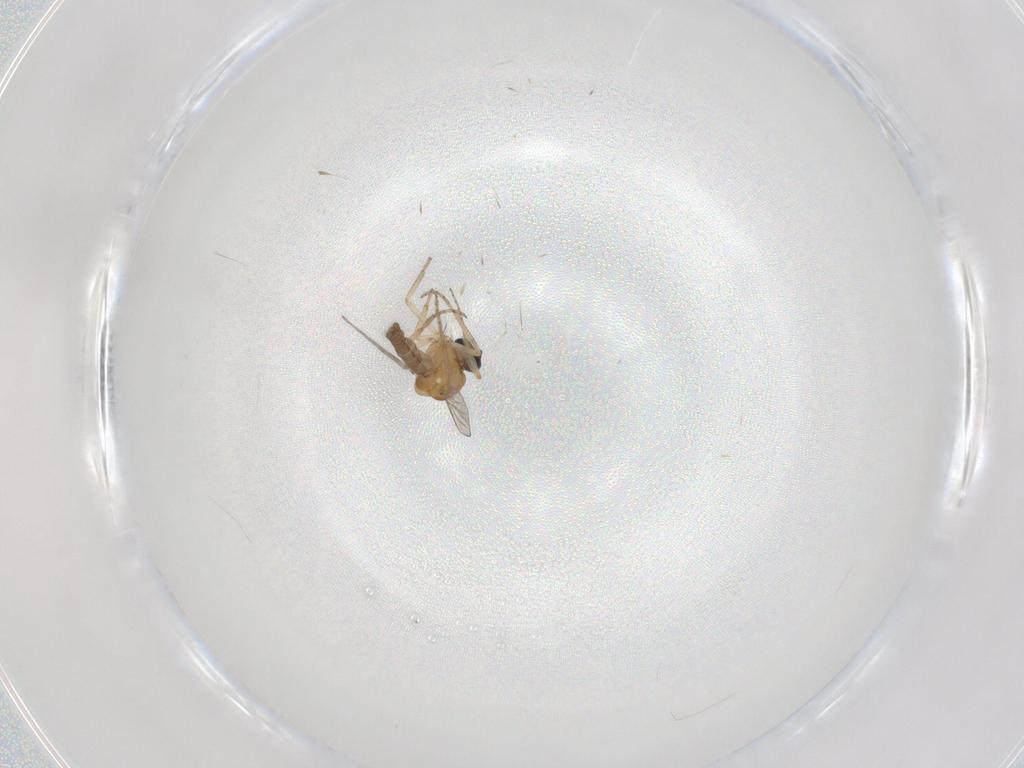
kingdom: Animalia
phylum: Arthropoda
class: Insecta
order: Diptera
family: Ceratopogonidae
